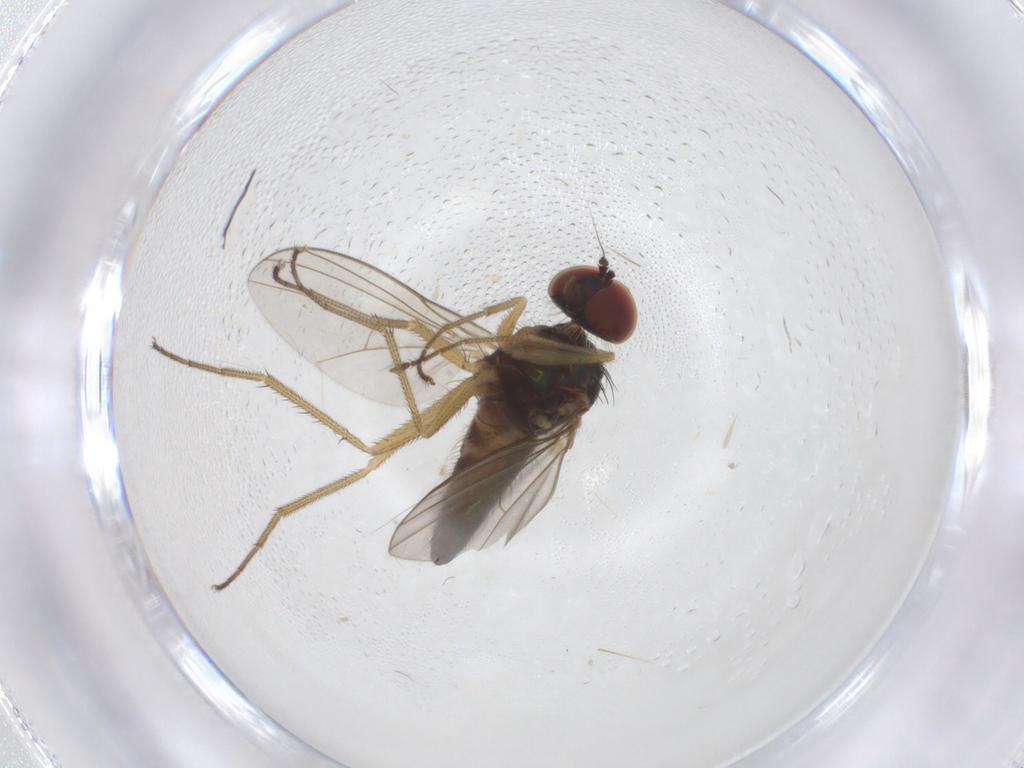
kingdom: Animalia
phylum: Arthropoda
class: Insecta
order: Diptera
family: Dolichopodidae
